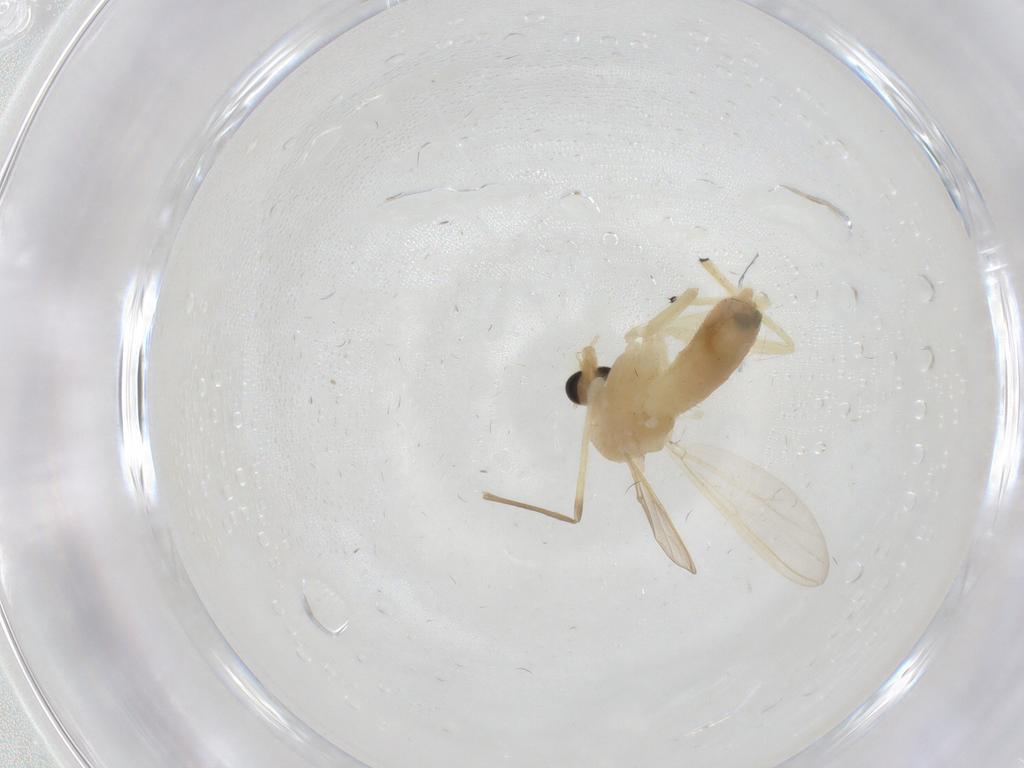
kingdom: Animalia
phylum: Arthropoda
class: Insecta
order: Diptera
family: Chironomidae
